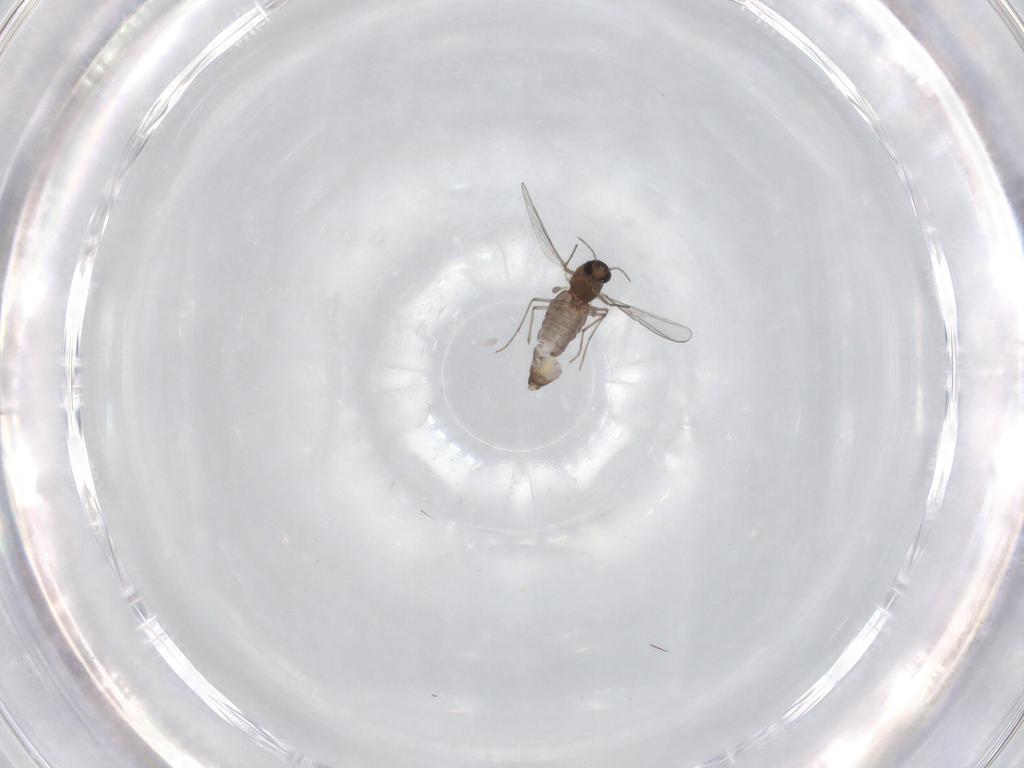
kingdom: Animalia
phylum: Arthropoda
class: Insecta
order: Diptera
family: Chironomidae
